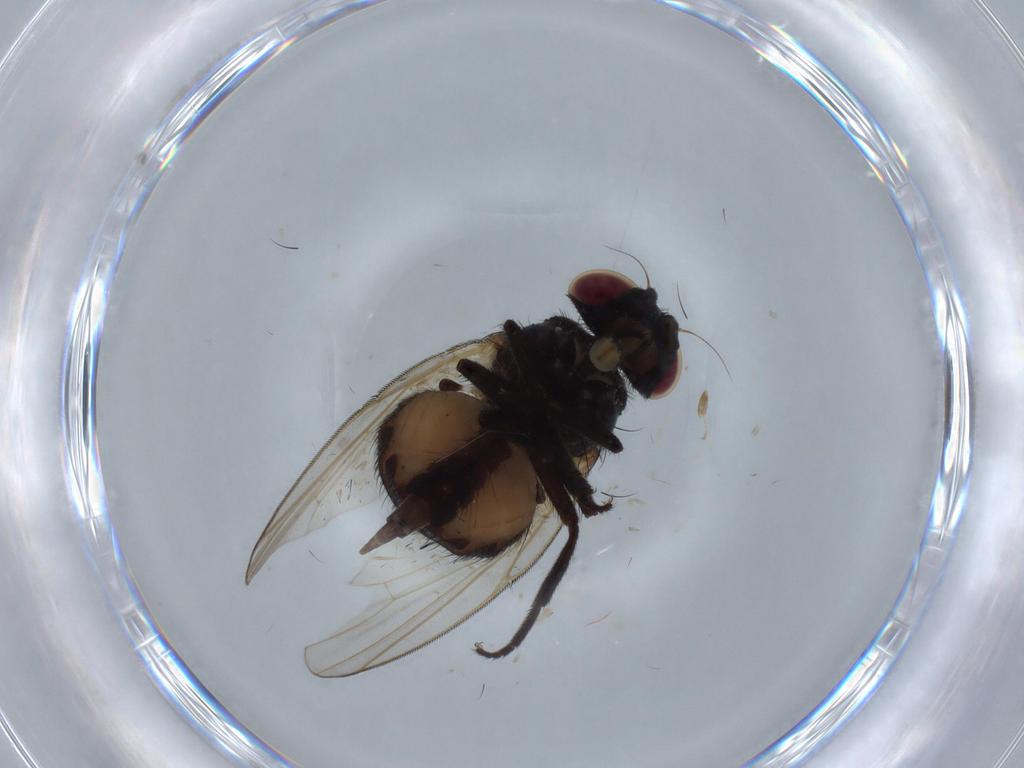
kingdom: Animalia
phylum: Arthropoda
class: Insecta
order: Diptera
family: Lonchaeidae
